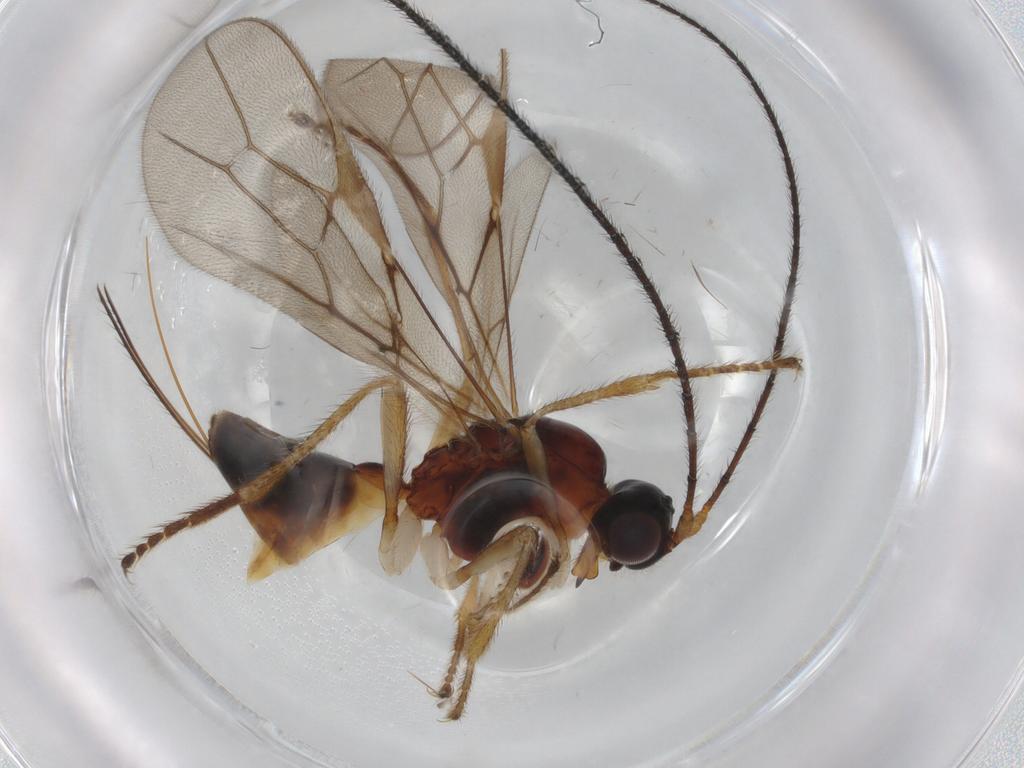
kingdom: Animalia
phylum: Arthropoda
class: Insecta
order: Hymenoptera
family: Platygastridae
